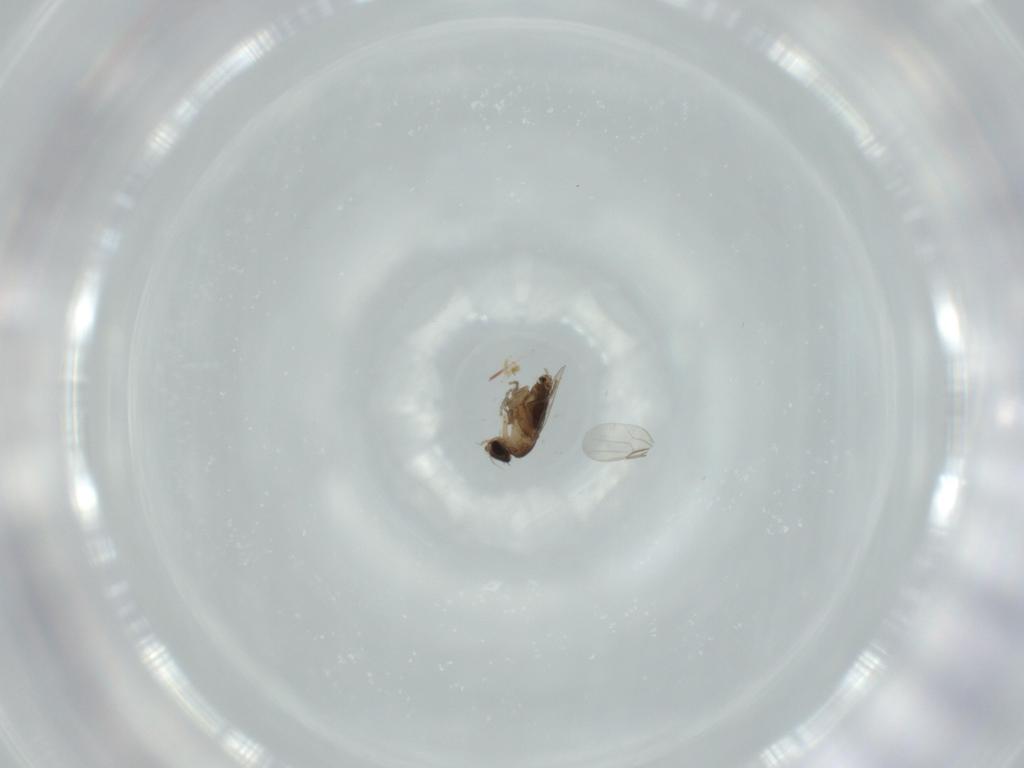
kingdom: Animalia
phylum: Arthropoda
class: Insecta
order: Diptera
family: Phoridae
